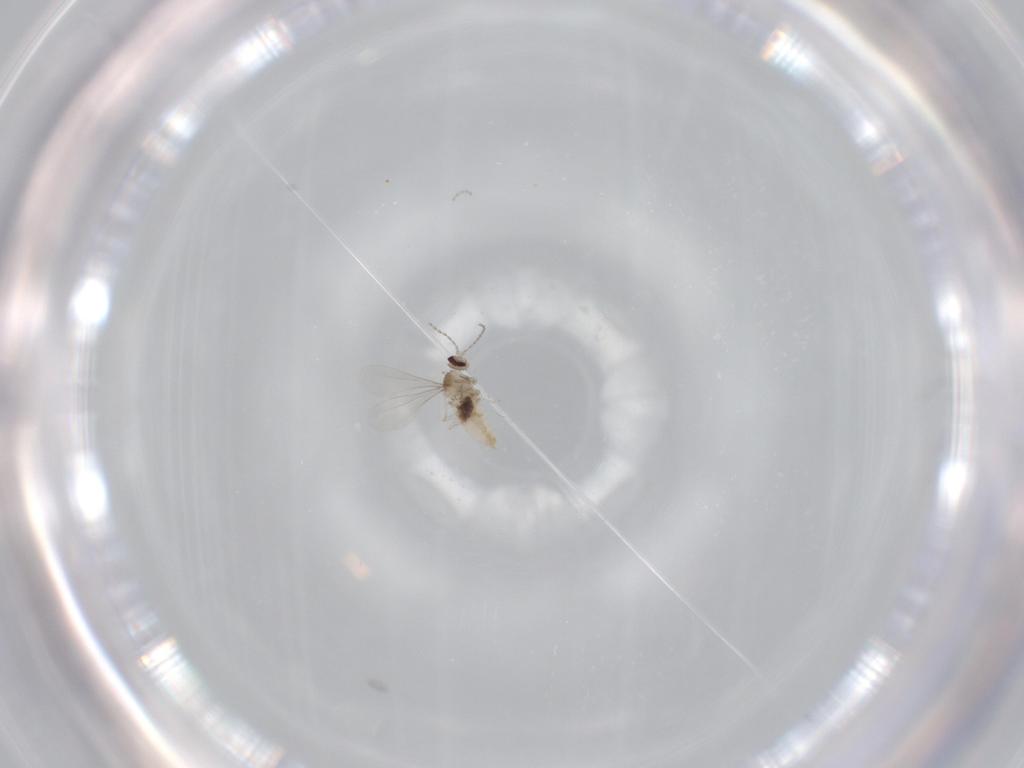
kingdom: Animalia
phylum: Arthropoda
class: Insecta
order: Diptera
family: Cecidomyiidae
